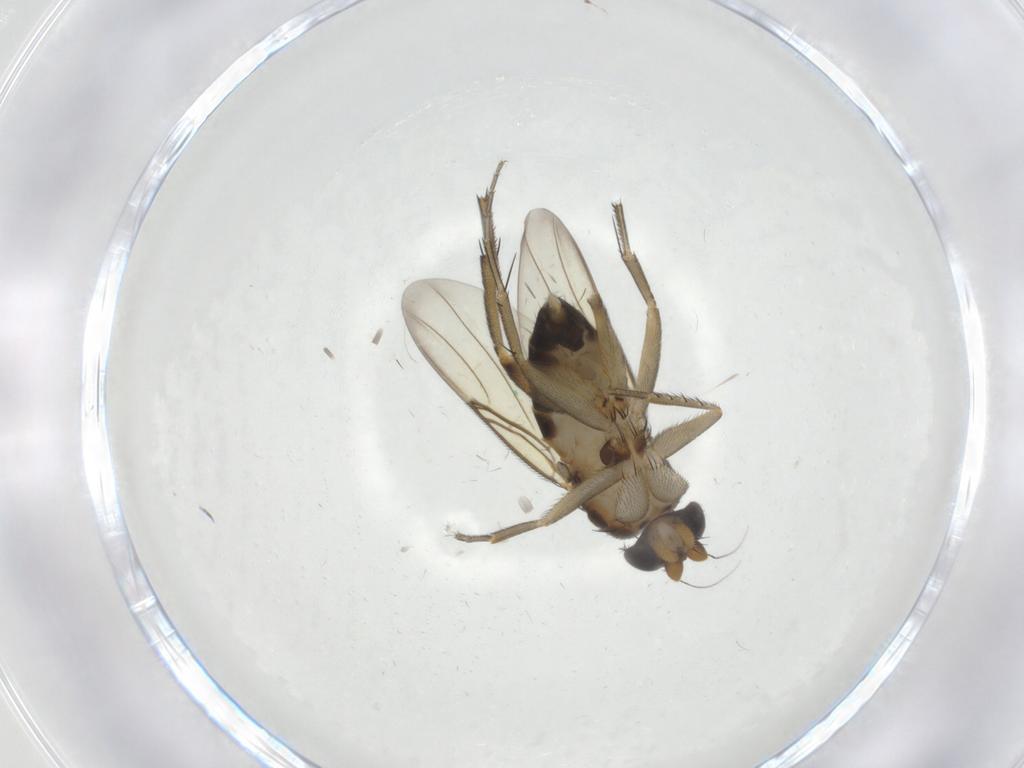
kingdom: Animalia
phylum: Arthropoda
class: Insecta
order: Diptera
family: Phoridae
